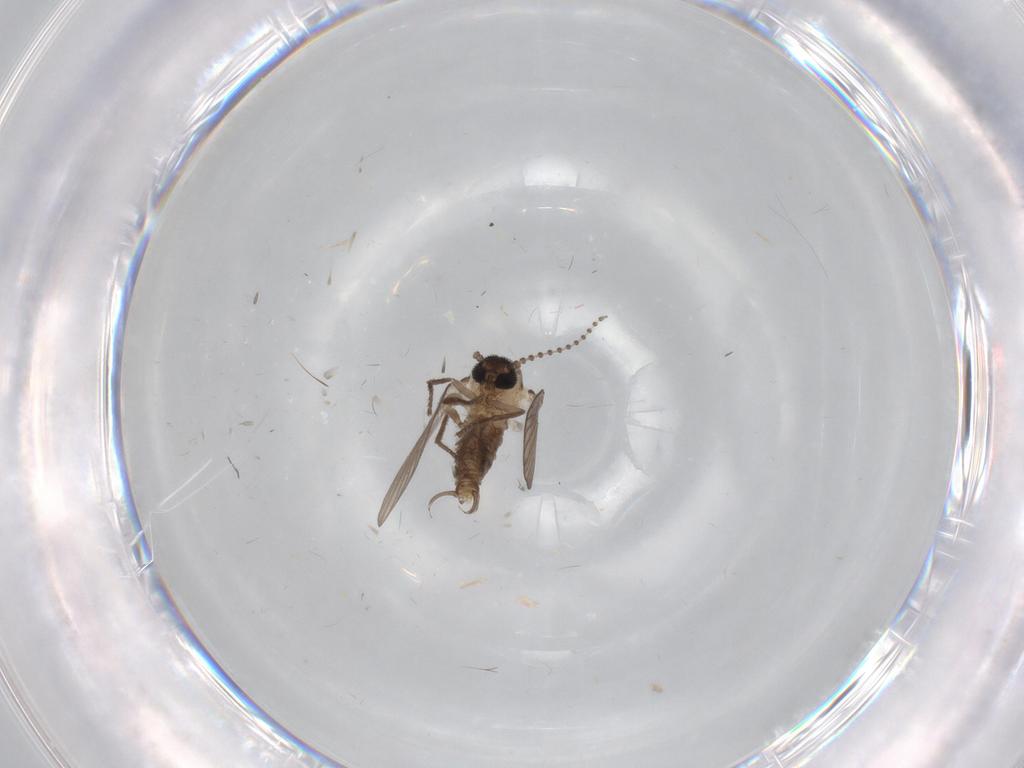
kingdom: Animalia
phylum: Arthropoda
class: Insecta
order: Diptera
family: Psychodidae
